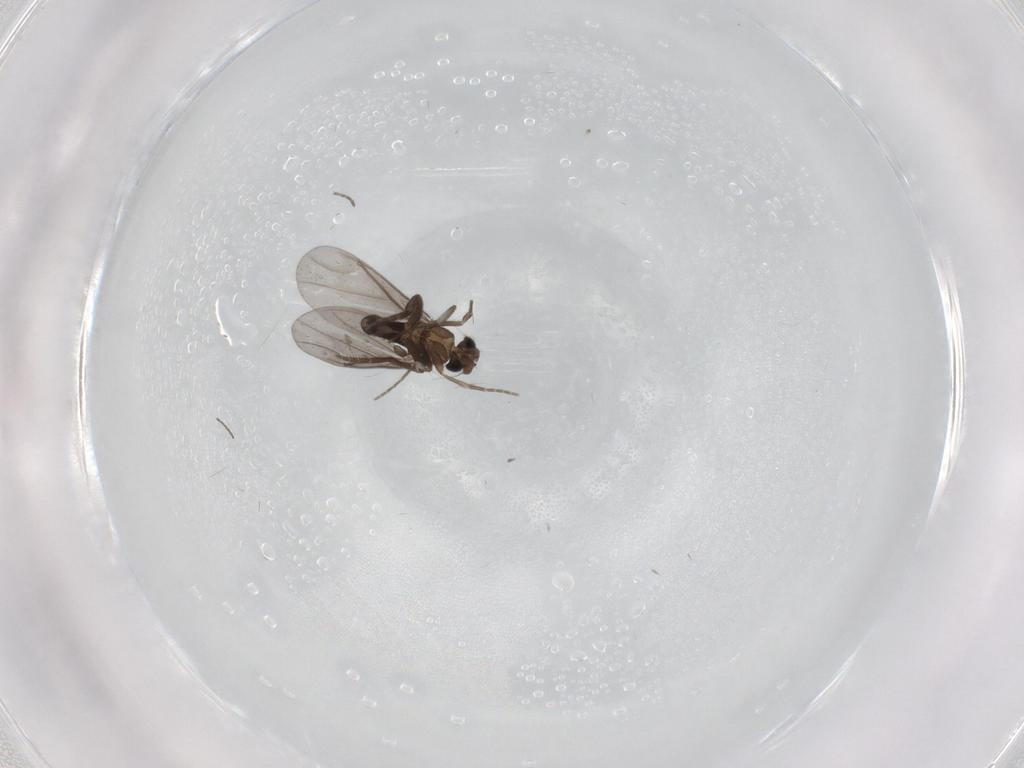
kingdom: Animalia
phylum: Arthropoda
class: Insecta
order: Diptera
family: Cecidomyiidae
